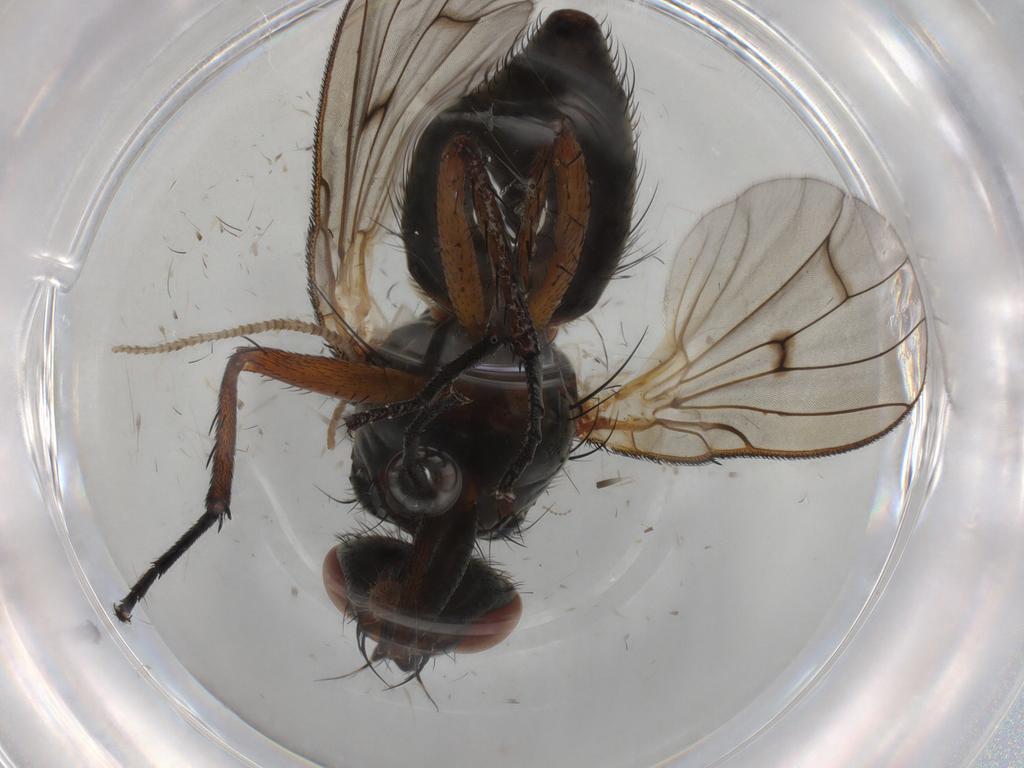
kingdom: Animalia
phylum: Arthropoda
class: Insecta
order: Diptera
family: Anthomyiidae
